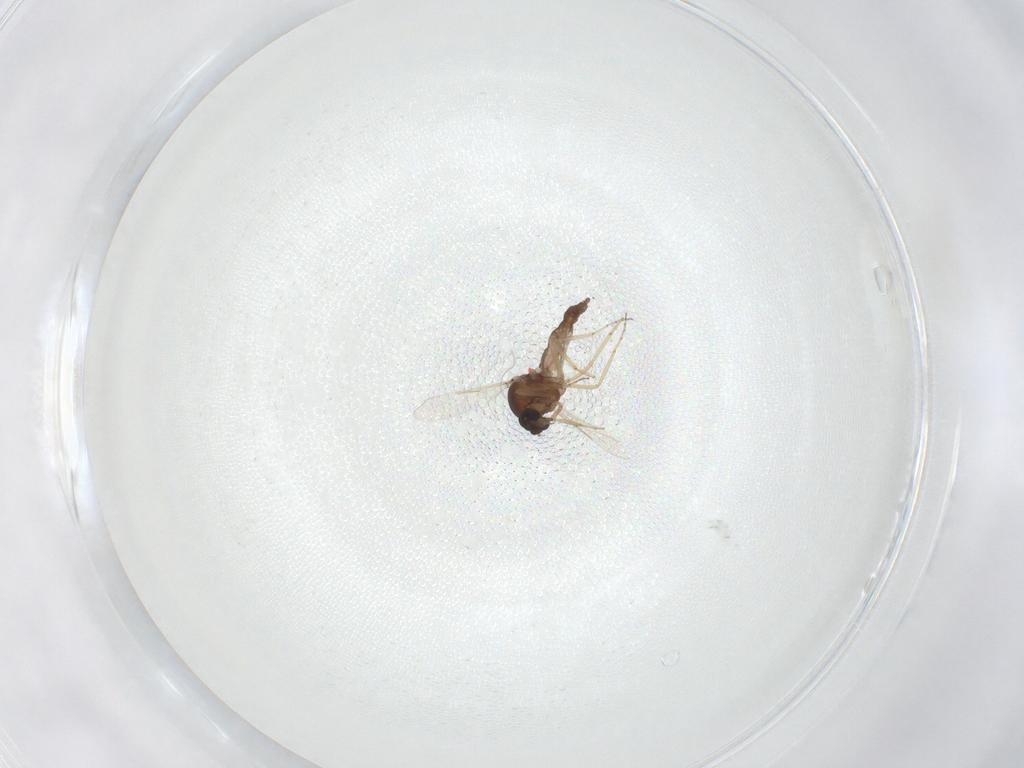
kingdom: Animalia
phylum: Arthropoda
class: Insecta
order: Diptera
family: Ceratopogonidae
